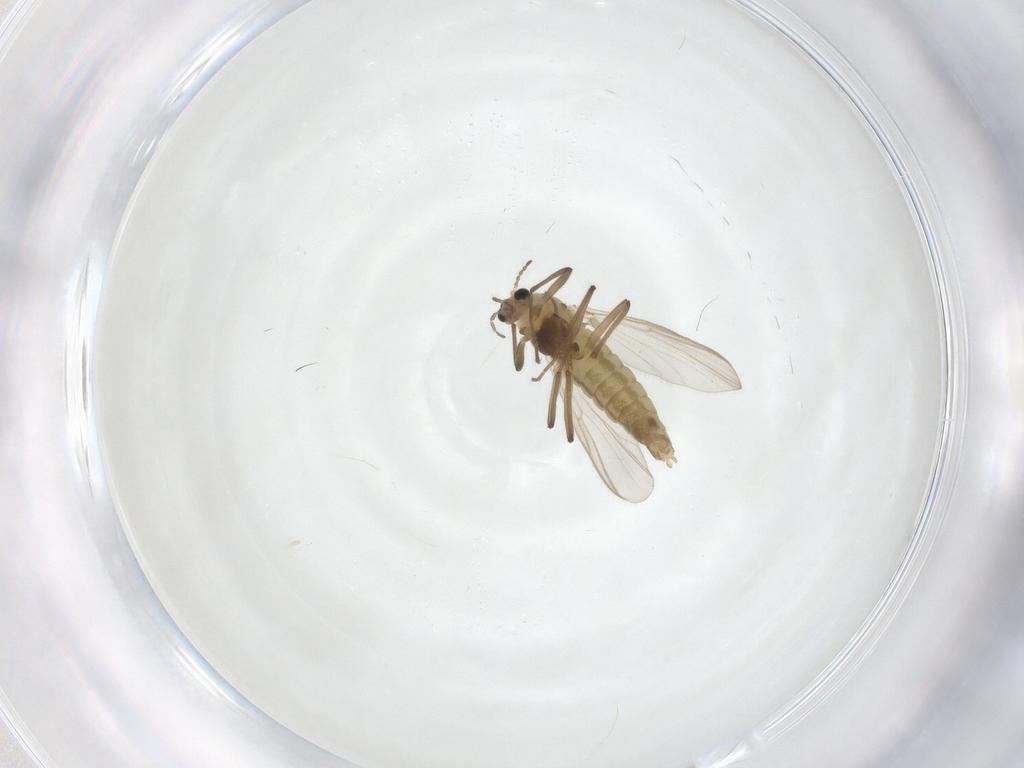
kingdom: Animalia
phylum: Arthropoda
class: Insecta
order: Diptera
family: Chironomidae
